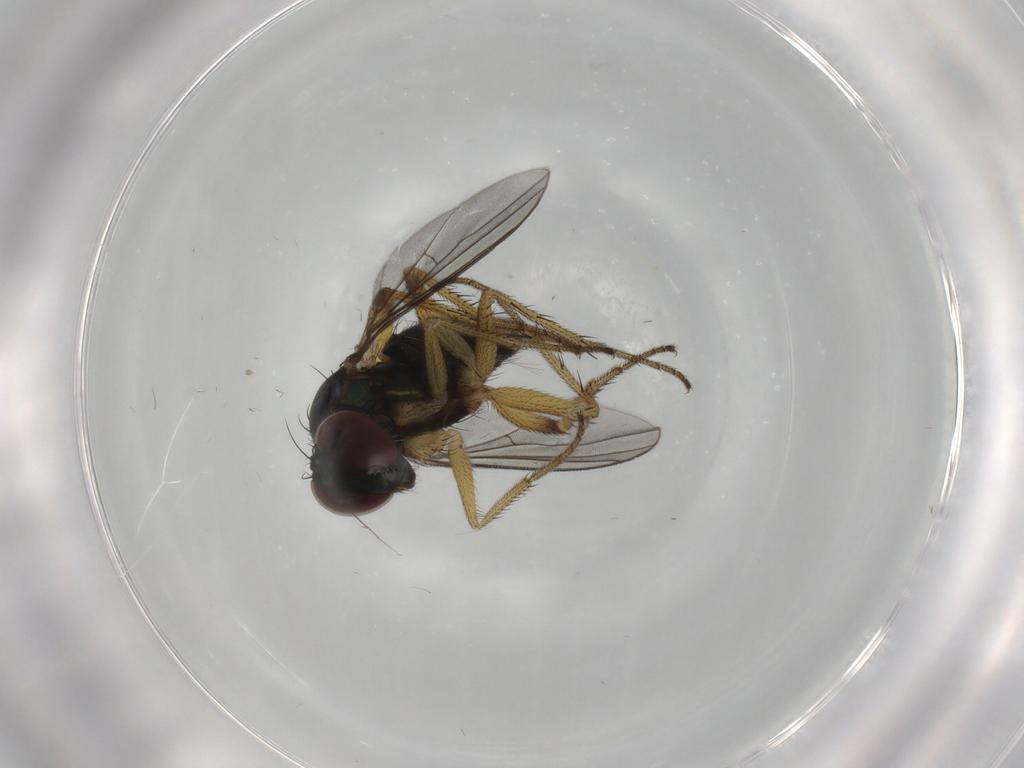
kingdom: Animalia
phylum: Arthropoda
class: Insecta
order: Diptera
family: Dolichopodidae
